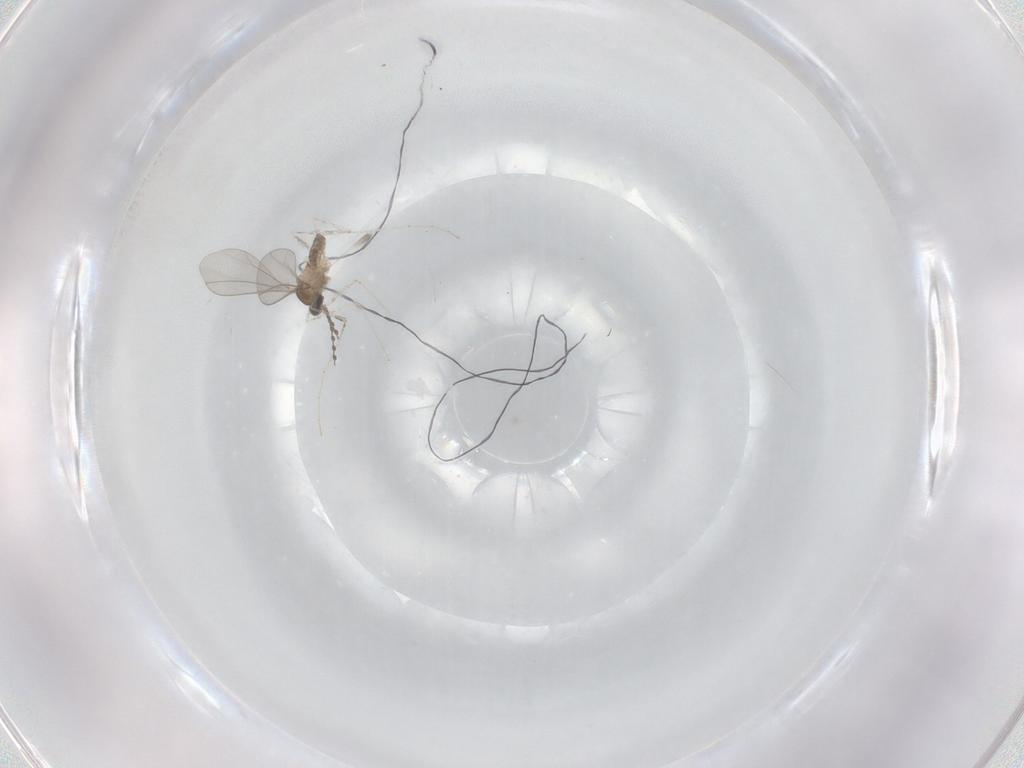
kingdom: Animalia
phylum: Arthropoda
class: Insecta
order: Diptera
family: Cecidomyiidae
